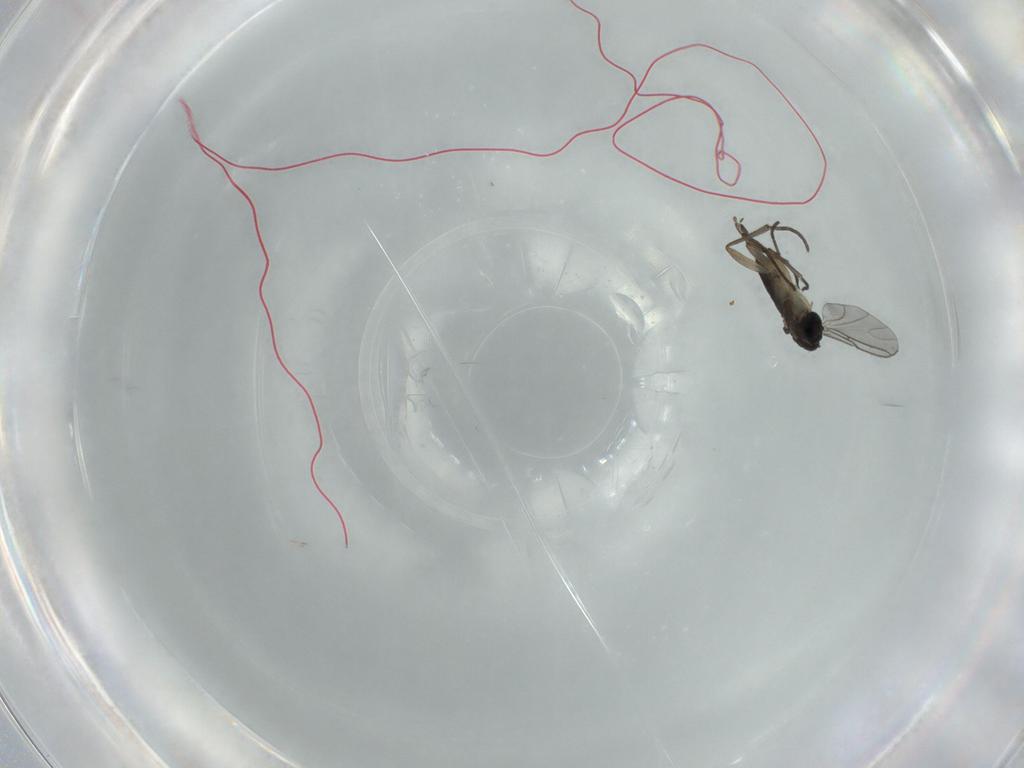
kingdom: Animalia
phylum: Arthropoda
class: Insecta
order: Diptera
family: Sciaridae
